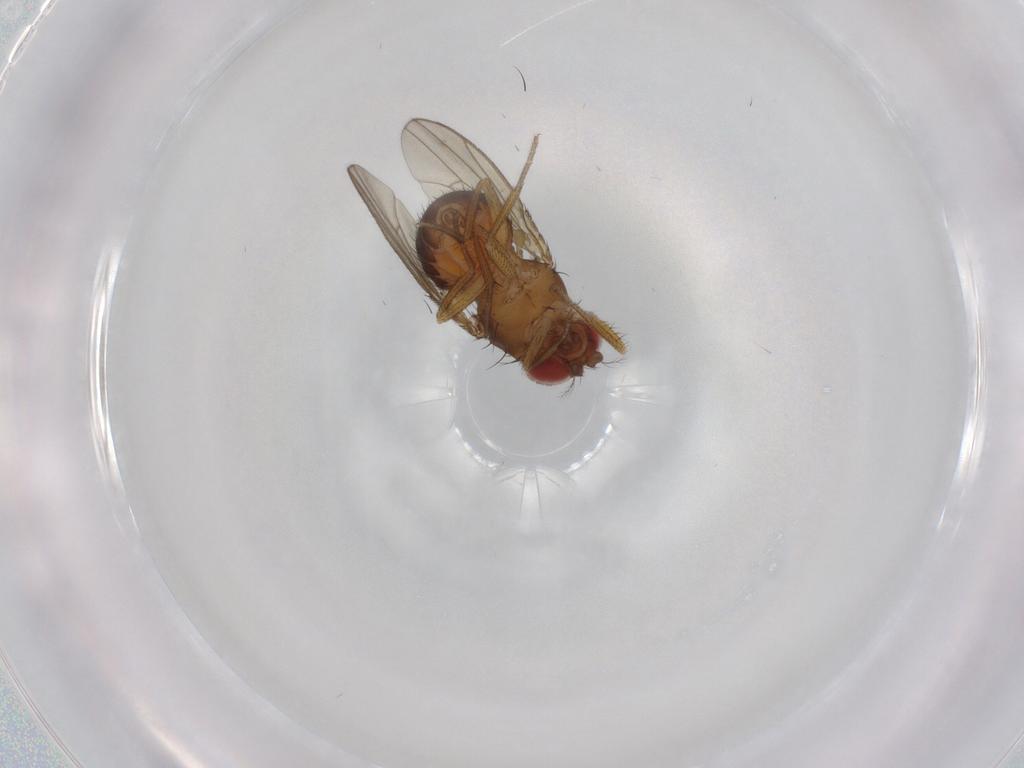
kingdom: Animalia
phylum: Arthropoda
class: Insecta
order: Diptera
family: Drosophilidae
